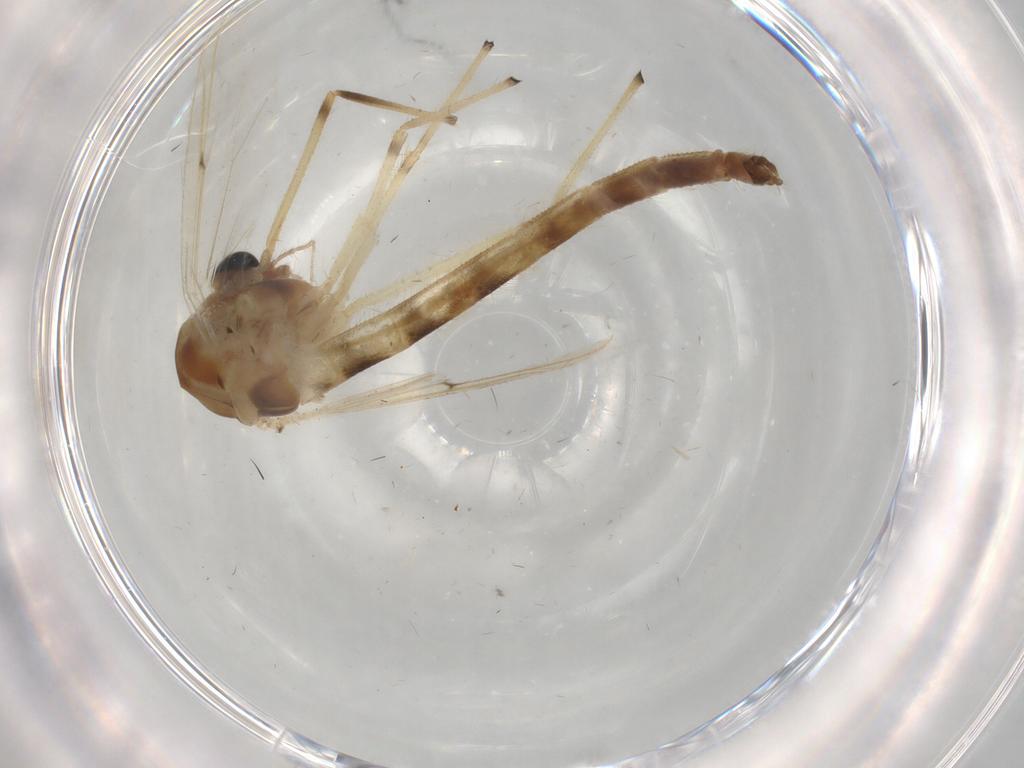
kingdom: Animalia
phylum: Arthropoda
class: Insecta
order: Diptera
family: Chironomidae
